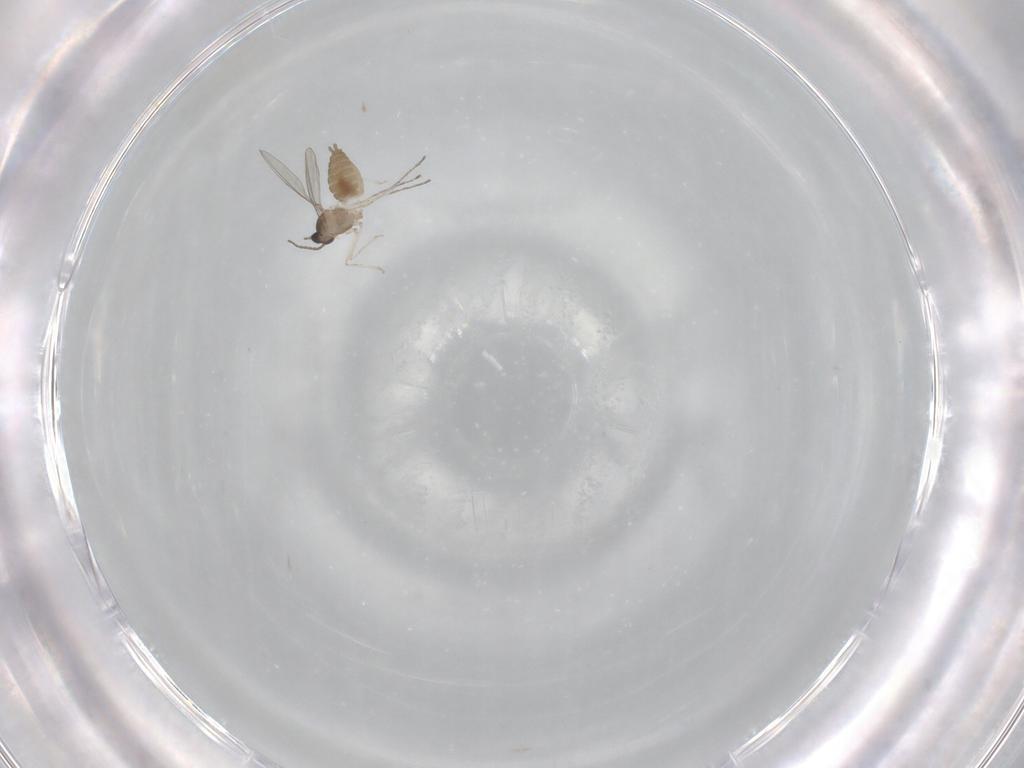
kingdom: Animalia
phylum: Arthropoda
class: Insecta
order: Diptera
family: Cecidomyiidae
